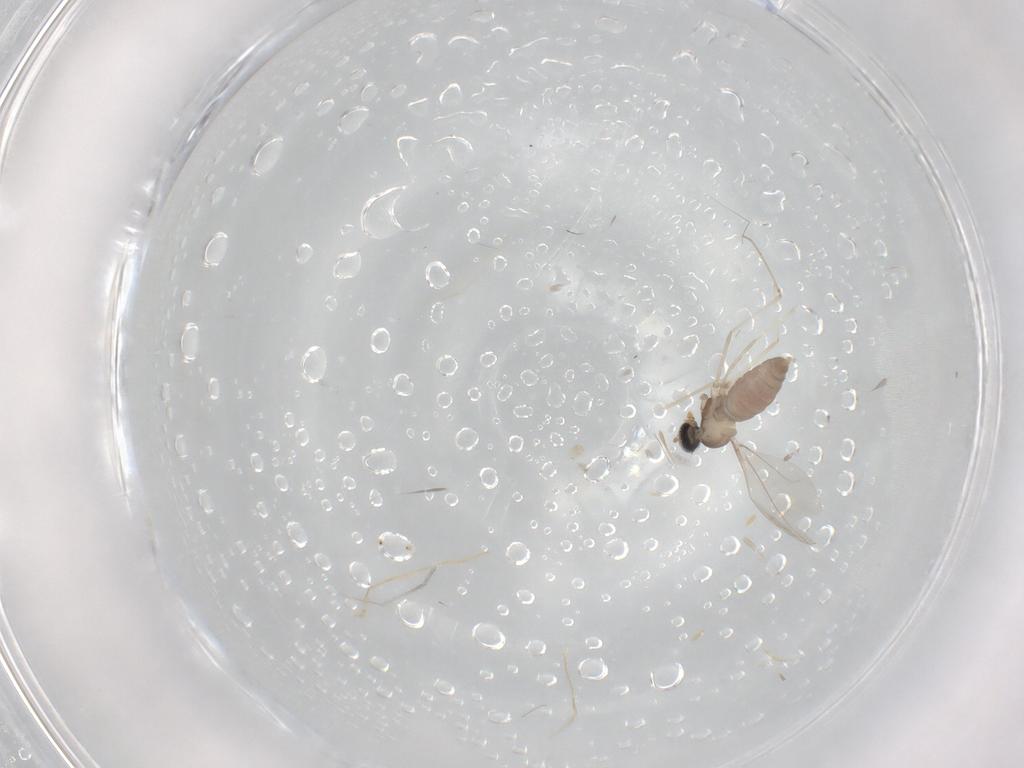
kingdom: Animalia
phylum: Arthropoda
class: Insecta
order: Diptera
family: Cecidomyiidae
